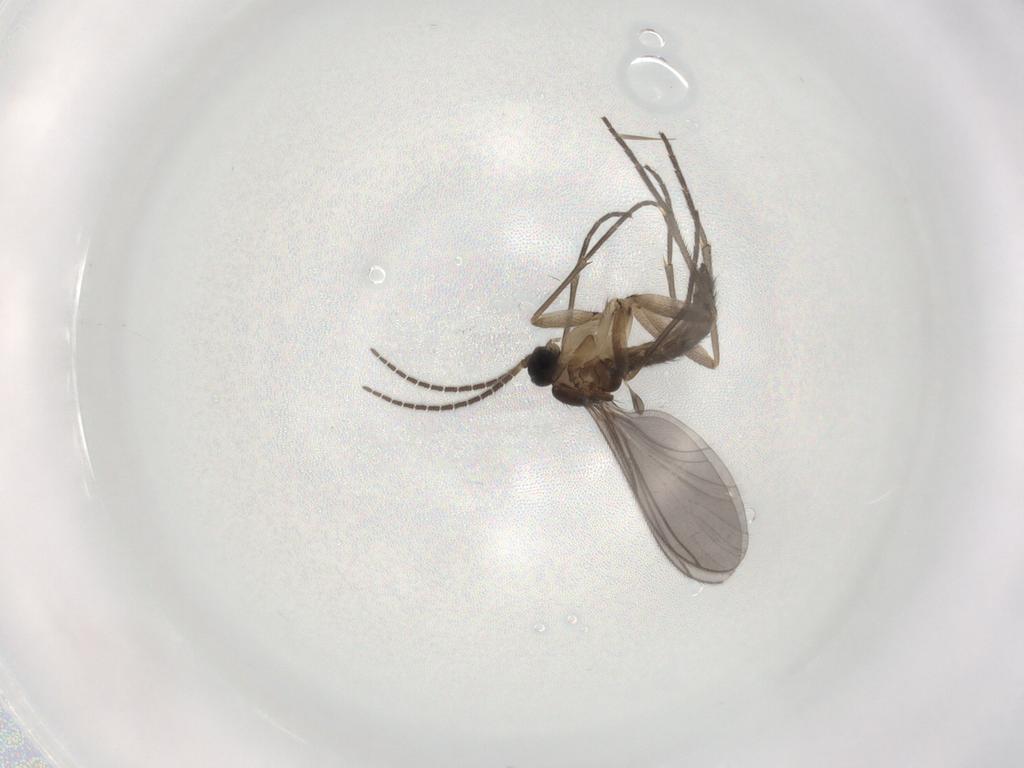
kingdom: Animalia
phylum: Arthropoda
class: Insecta
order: Diptera
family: Sciaridae
